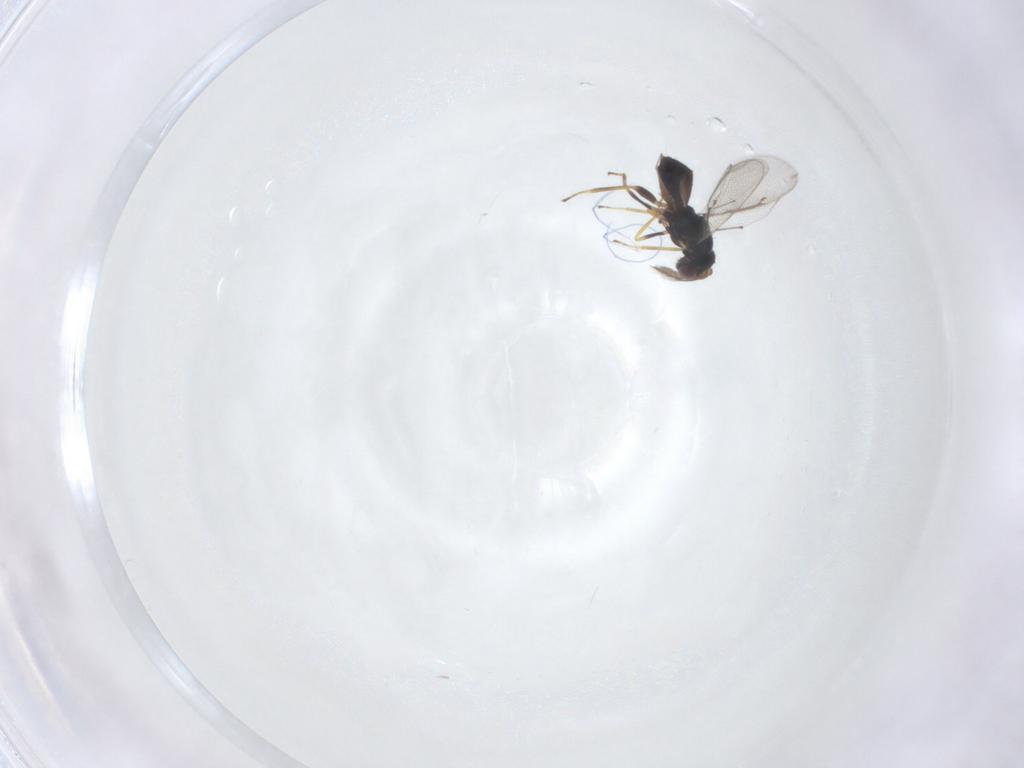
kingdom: Animalia
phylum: Arthropoda
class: Insecta
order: Hymenoptera
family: Eulophidae
